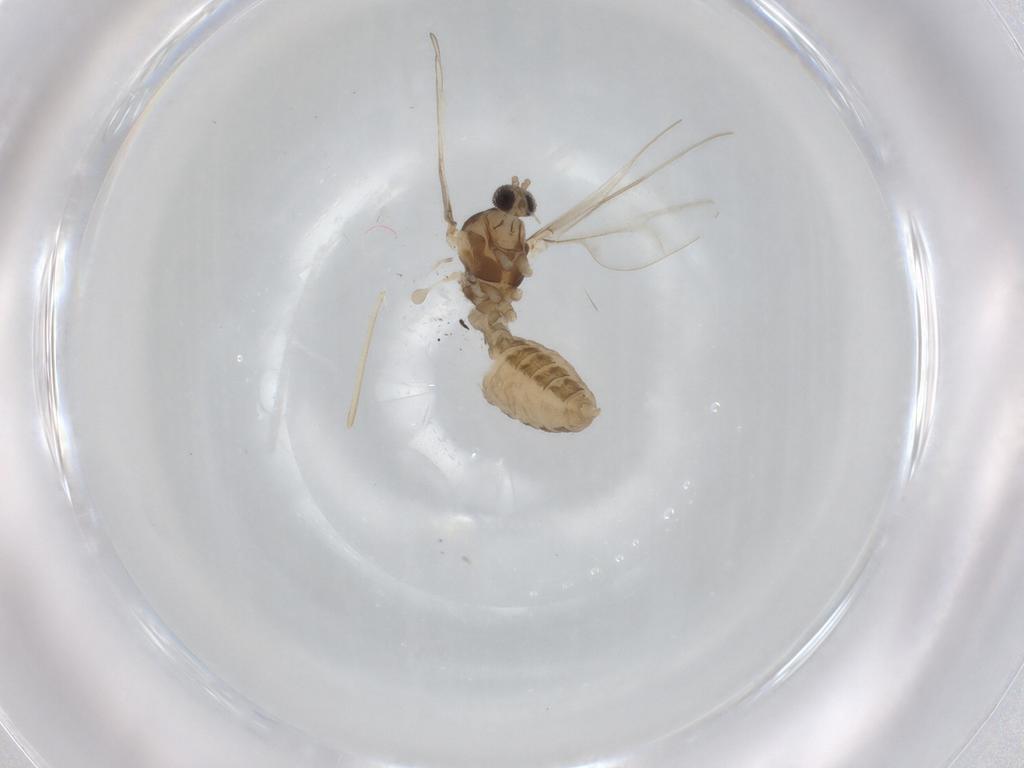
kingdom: Animalia
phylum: Arthropoda
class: Insecta
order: Diptera
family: Cecidomyiidae
